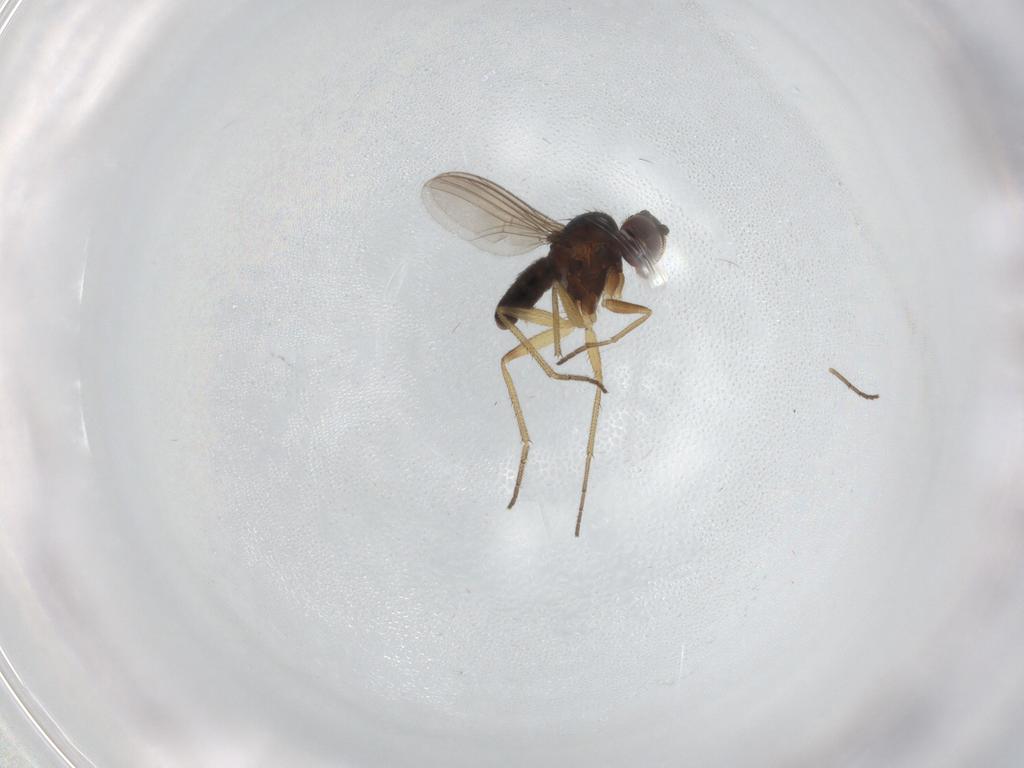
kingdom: Animalia
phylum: Arthropoda
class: Insecta
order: Diptera
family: Dolichopodidae
